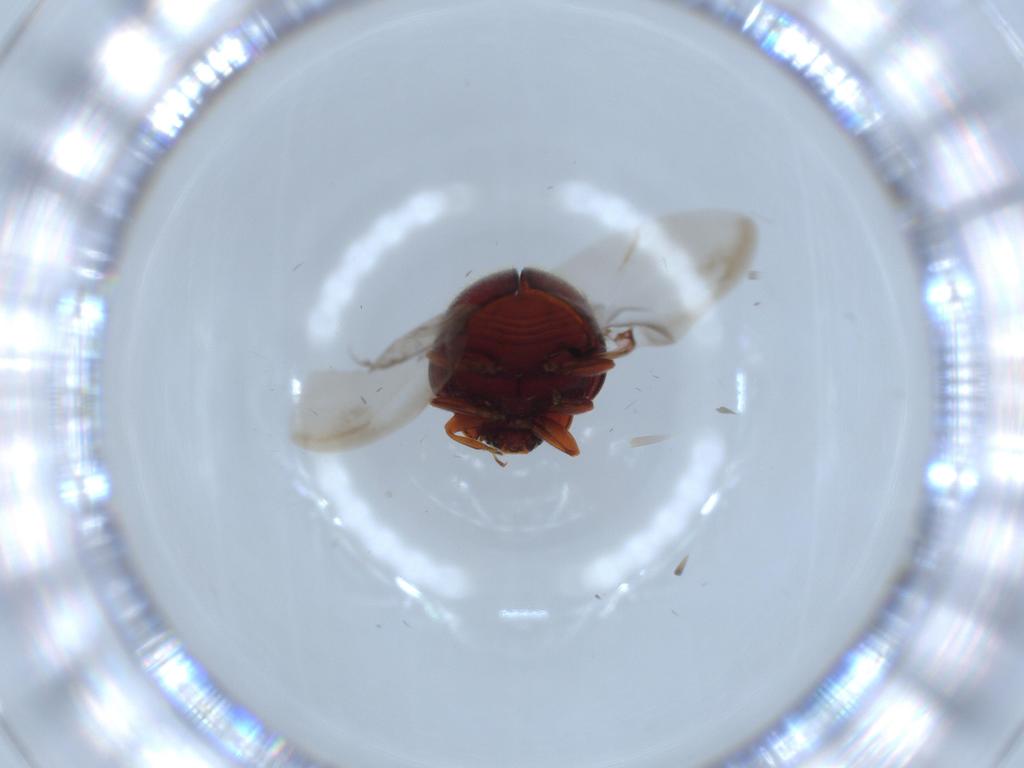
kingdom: Animalia
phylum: Arthropoda
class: Insecta
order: Coleoptera
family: Coccinellidae
